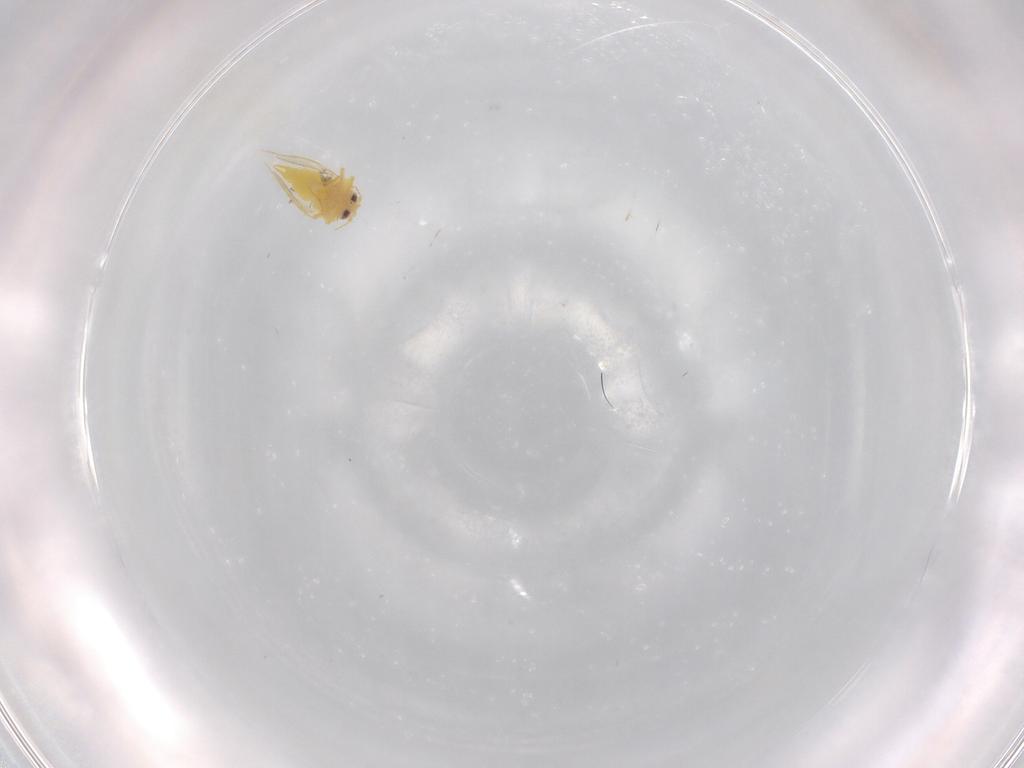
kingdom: Animalia
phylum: Arthropoda
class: Insecta
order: Hemiptera
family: Aleyrodidae
